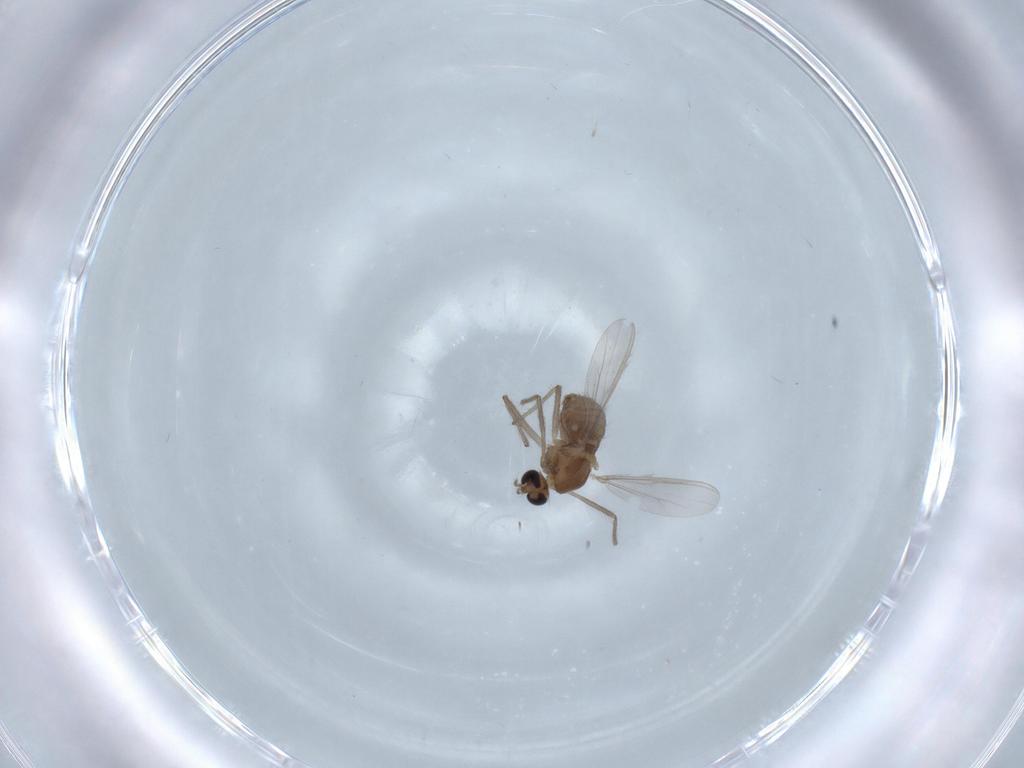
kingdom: Animalia
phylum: Arthropoda
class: Insecta
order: Diptera
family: Chironomidae
